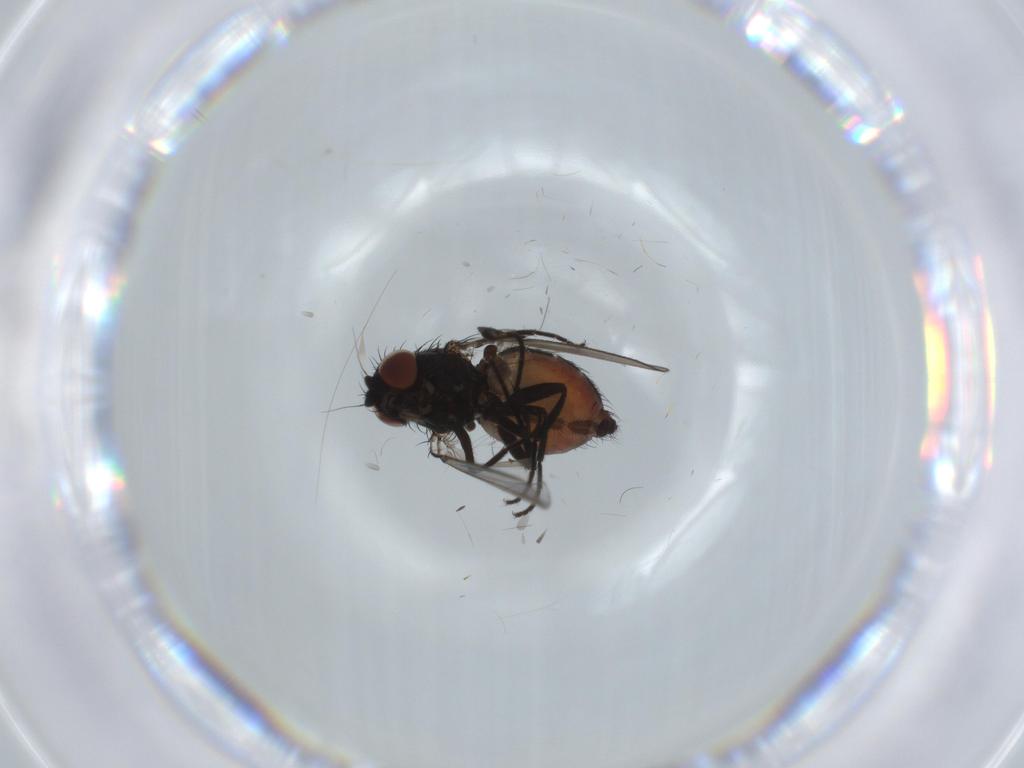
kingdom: Animalia
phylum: Arthropoda
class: Insecta
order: Diptera
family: Milichiidae
